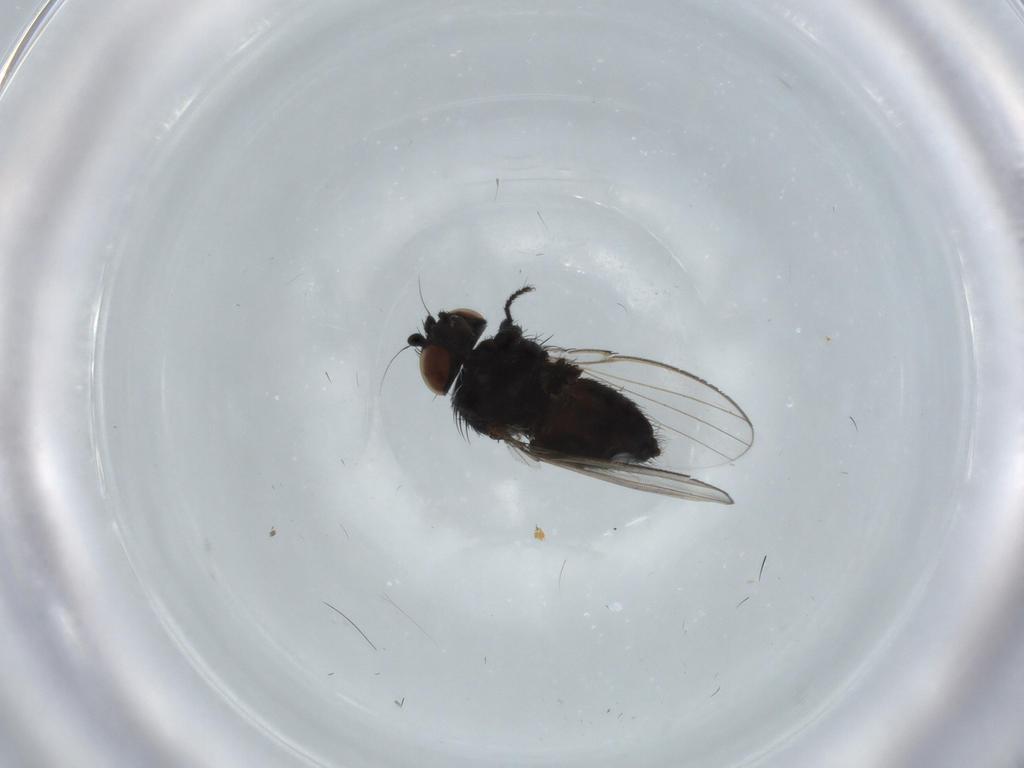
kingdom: Animalia
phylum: Arthropoda
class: Insecta
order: Diptera
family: Sciaridae
